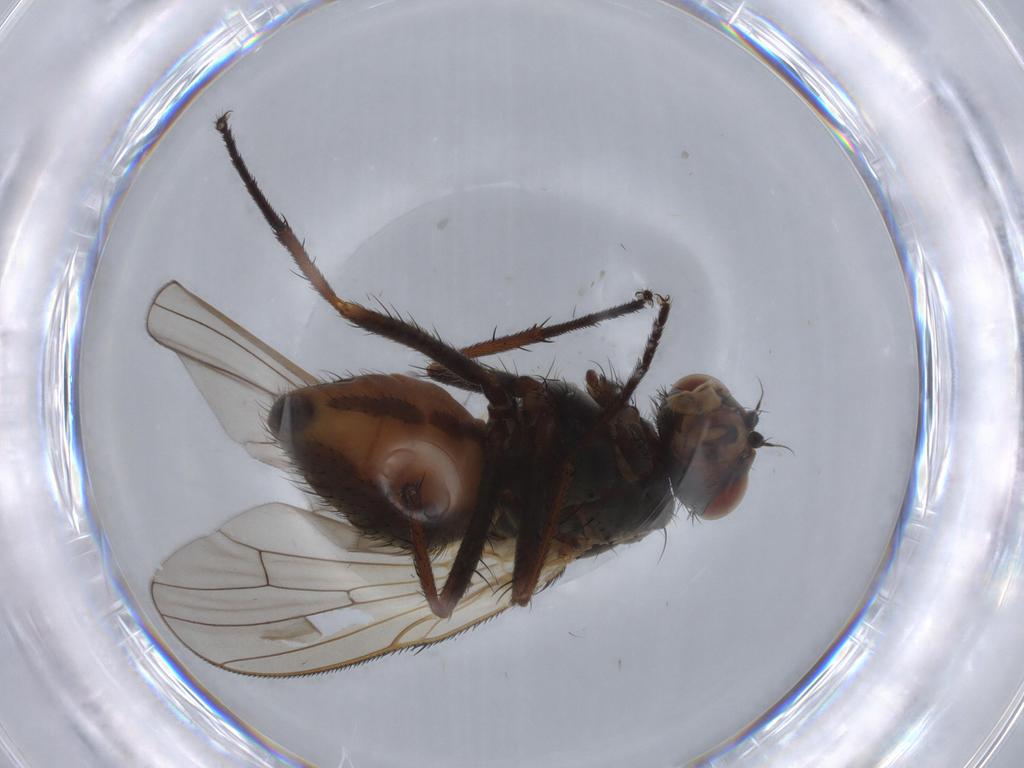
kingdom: Animalia
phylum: Arthropoda
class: Insecta
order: Diptera
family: Anthomyiidae
